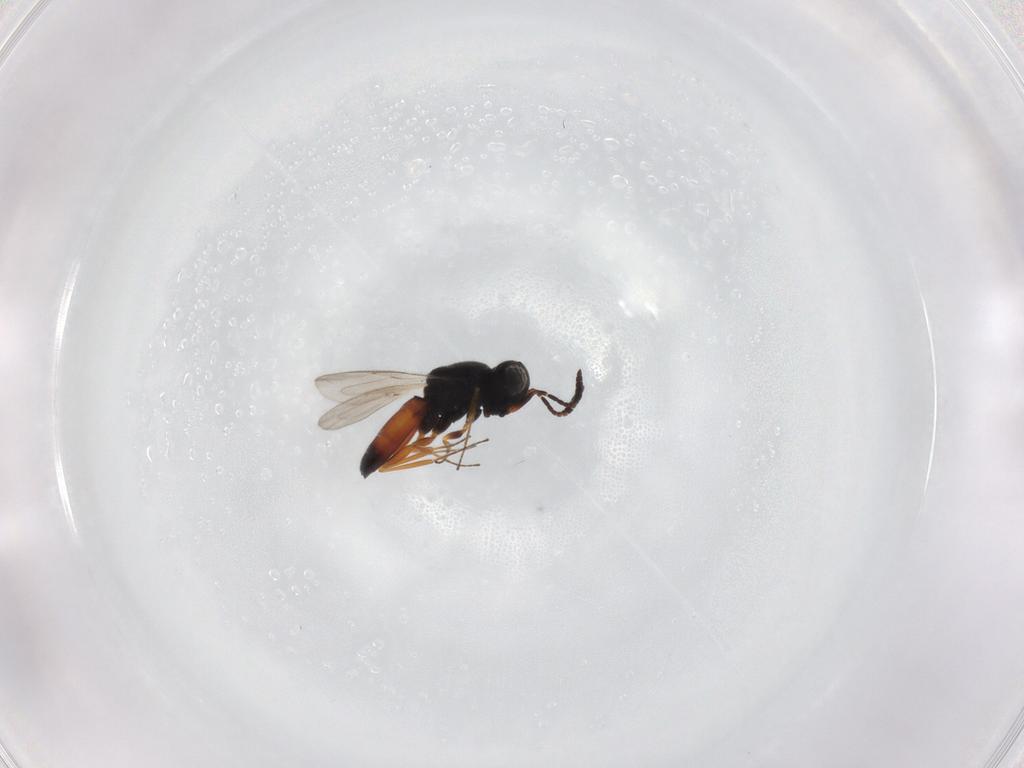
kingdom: Animalia
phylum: Arthropoda
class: Insecta
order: Hymenoptera
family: Scelionidae
